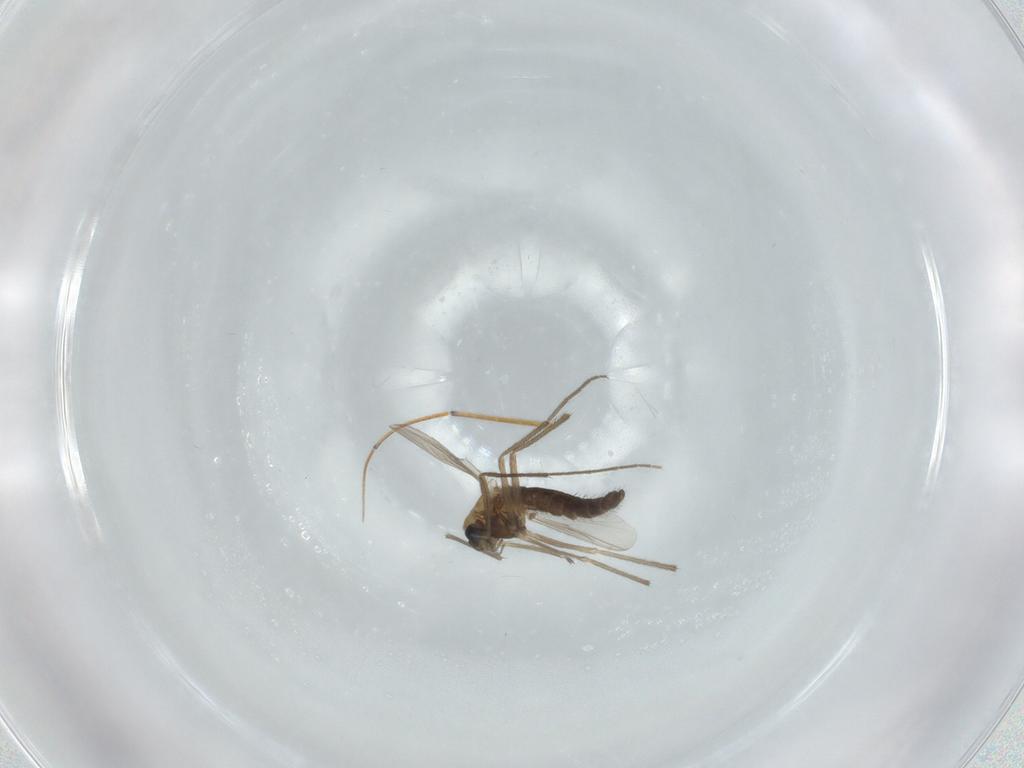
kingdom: Animalia
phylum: Arthropoda
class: Insecta
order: Diptera
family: Chironomidae
